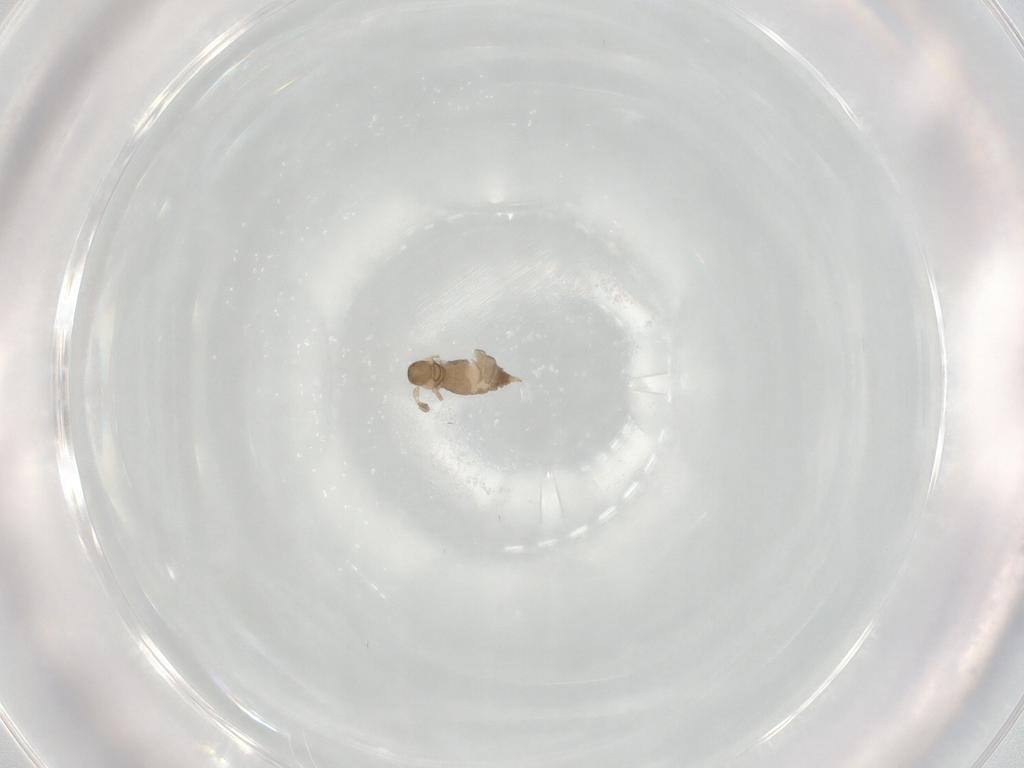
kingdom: Animalia
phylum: Arthropoda
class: Insecta
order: Diptera
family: Cecidomyiidae
